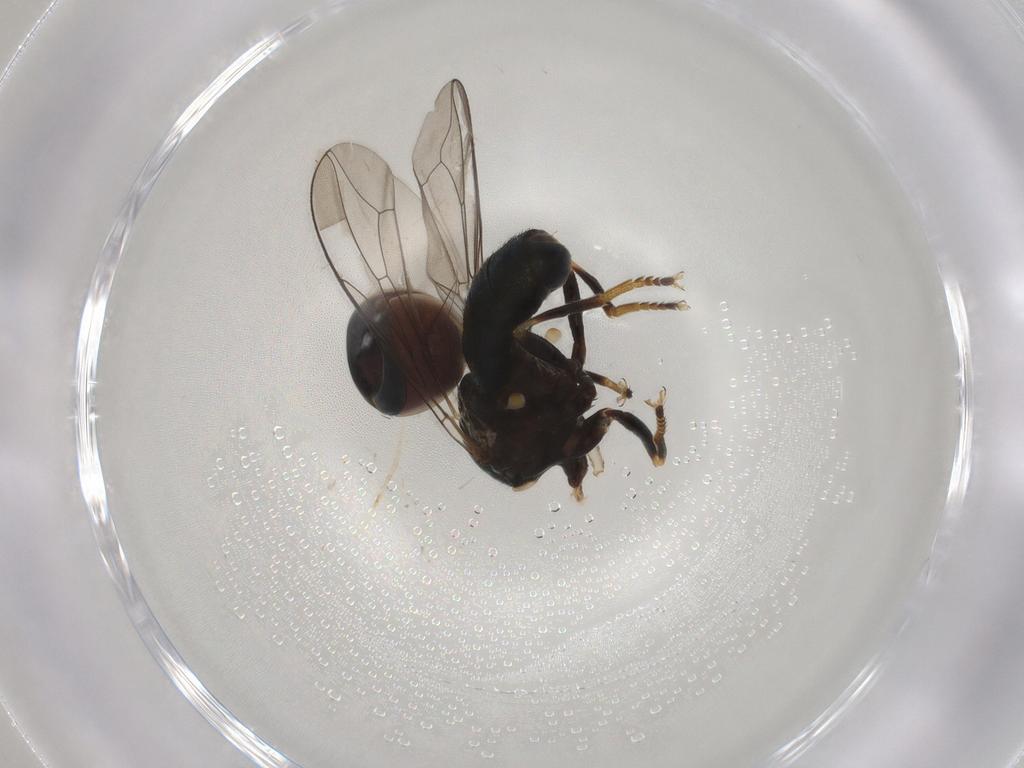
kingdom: Animalia
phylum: Arthropoda
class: Insecta
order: Diptera
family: Pipunculidae
